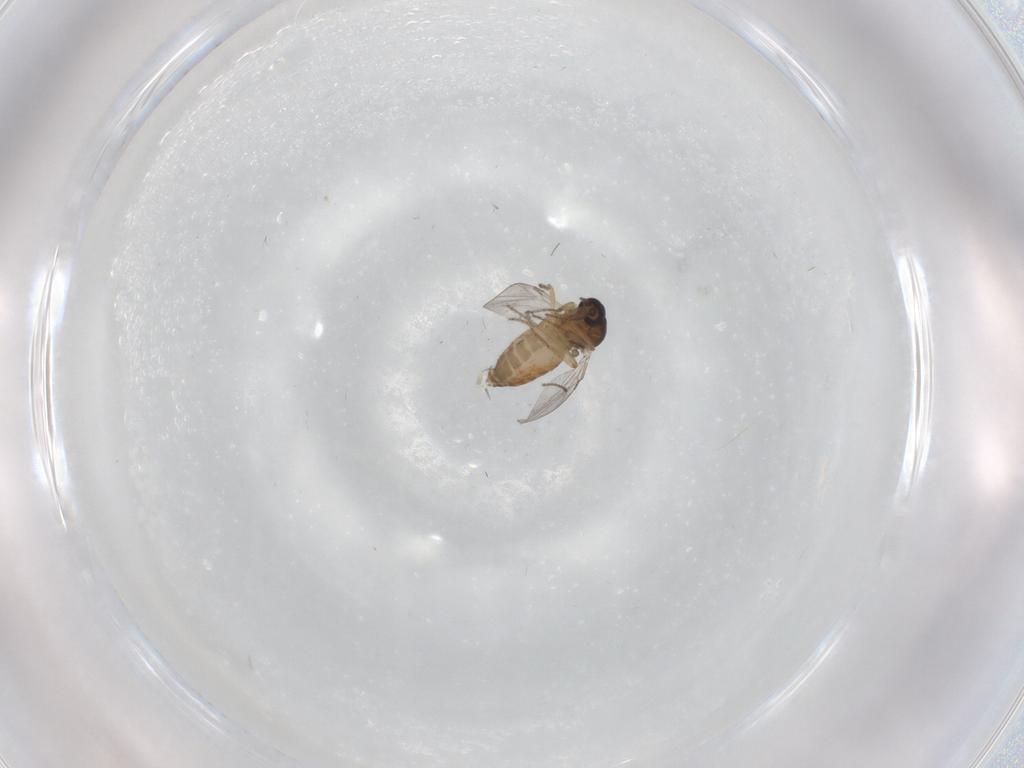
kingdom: Animalia
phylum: Arthropoda
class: Insecta
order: Diptera
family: Ceratopogonidae
